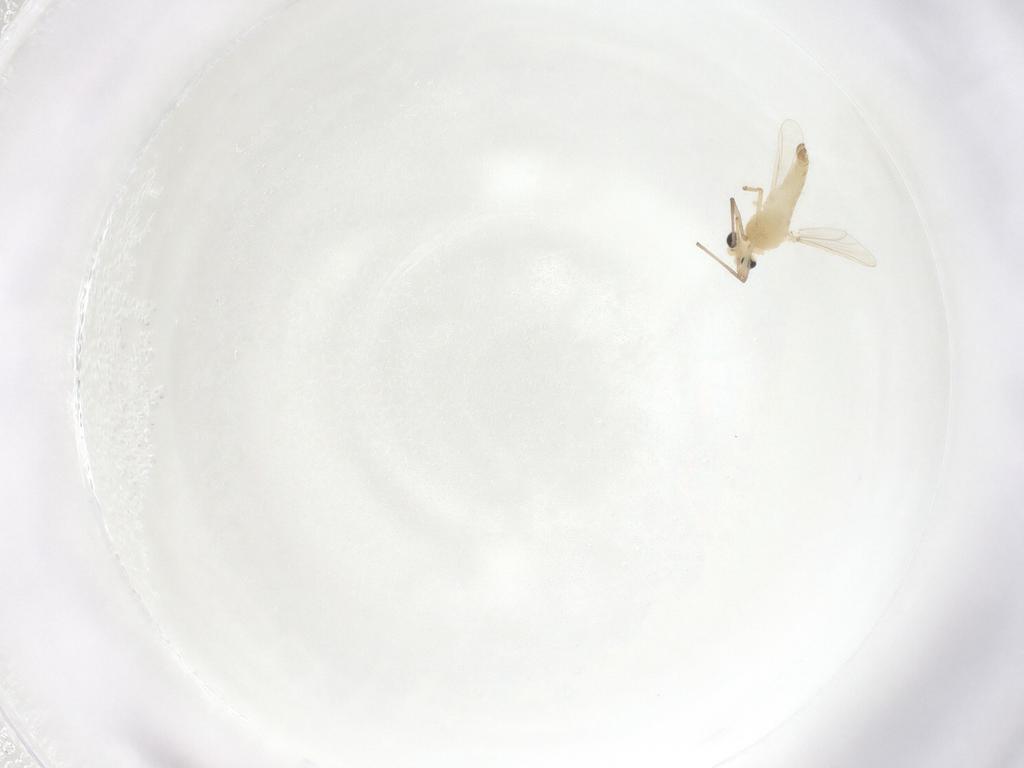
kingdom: Animalia
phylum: Arthropoda
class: Insecta
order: Diptera
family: Chironomidae
